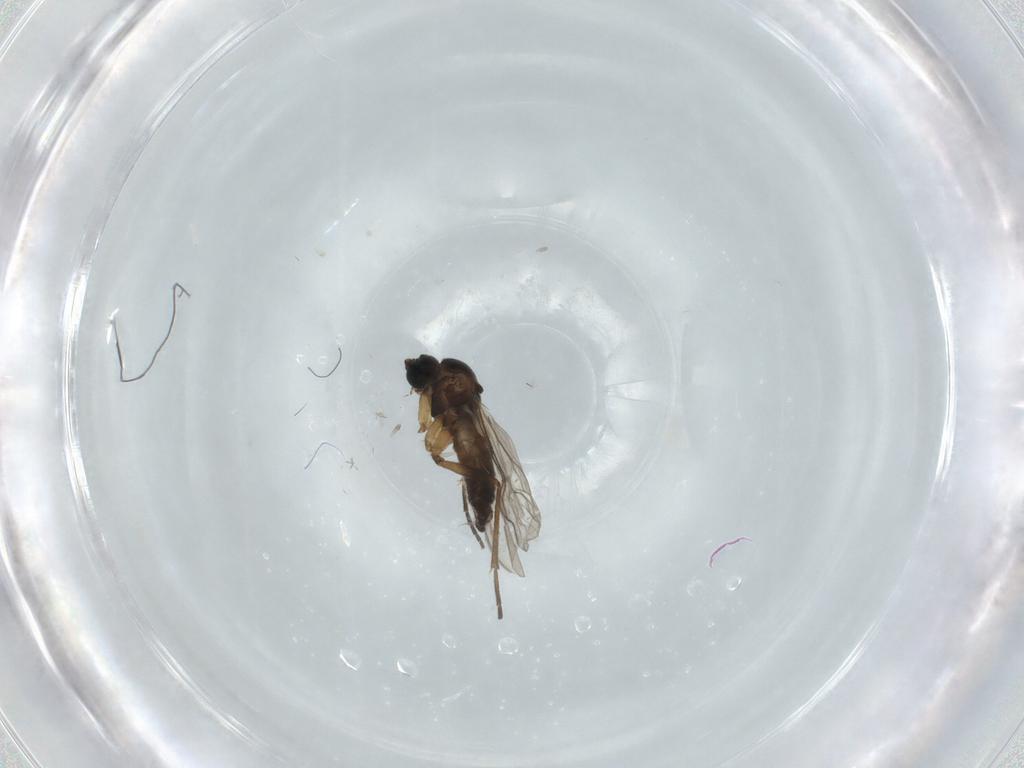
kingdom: Animalia
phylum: Arthropoda
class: Insecta
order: Diptera
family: Sciaridae
